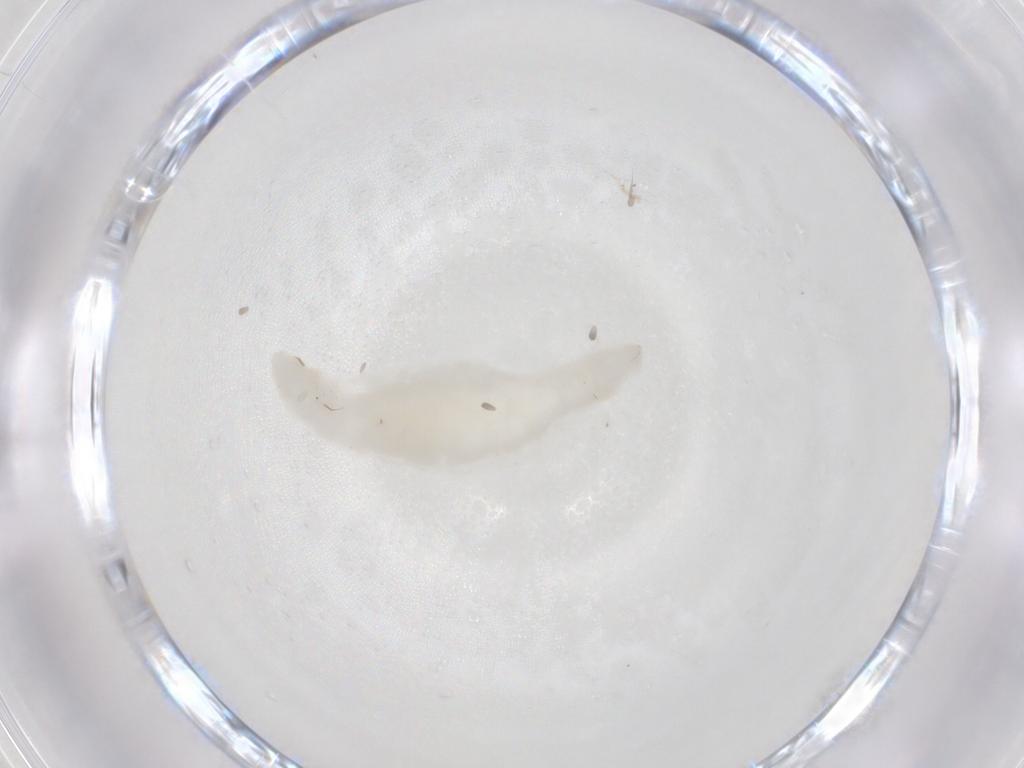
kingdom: Animalia
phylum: Arthropoda
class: Insecta
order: Hymenoptera
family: Braconidae
